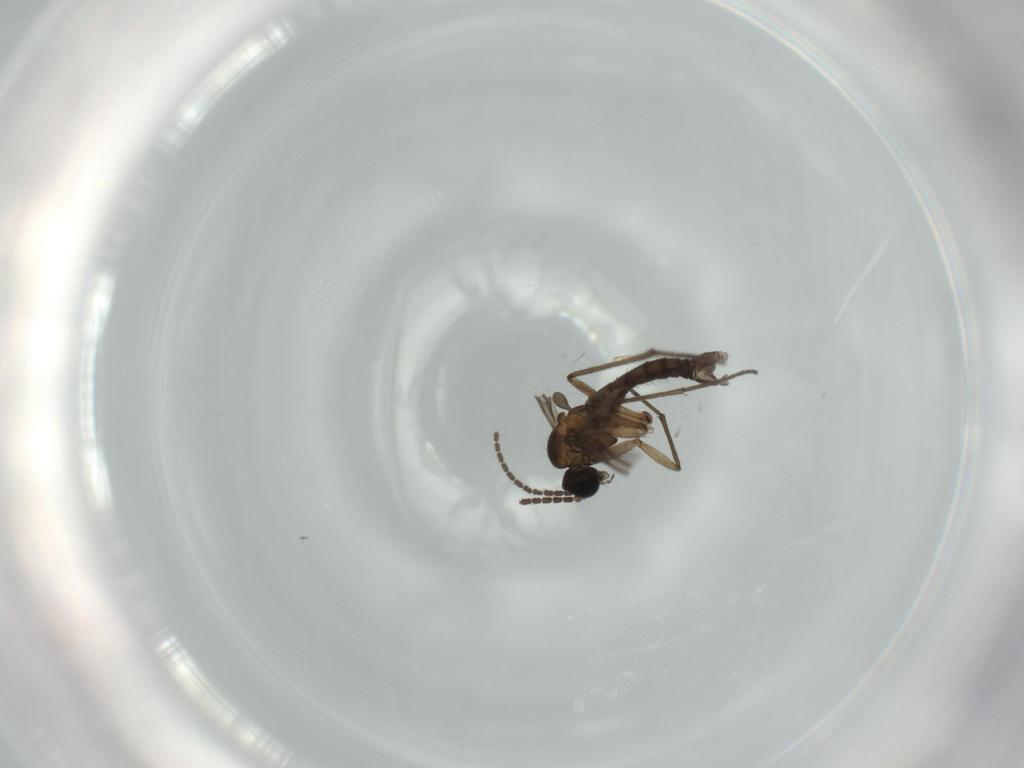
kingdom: Animalia
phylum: Arthropoda
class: Insecta
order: Diptera
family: Sciaridae
